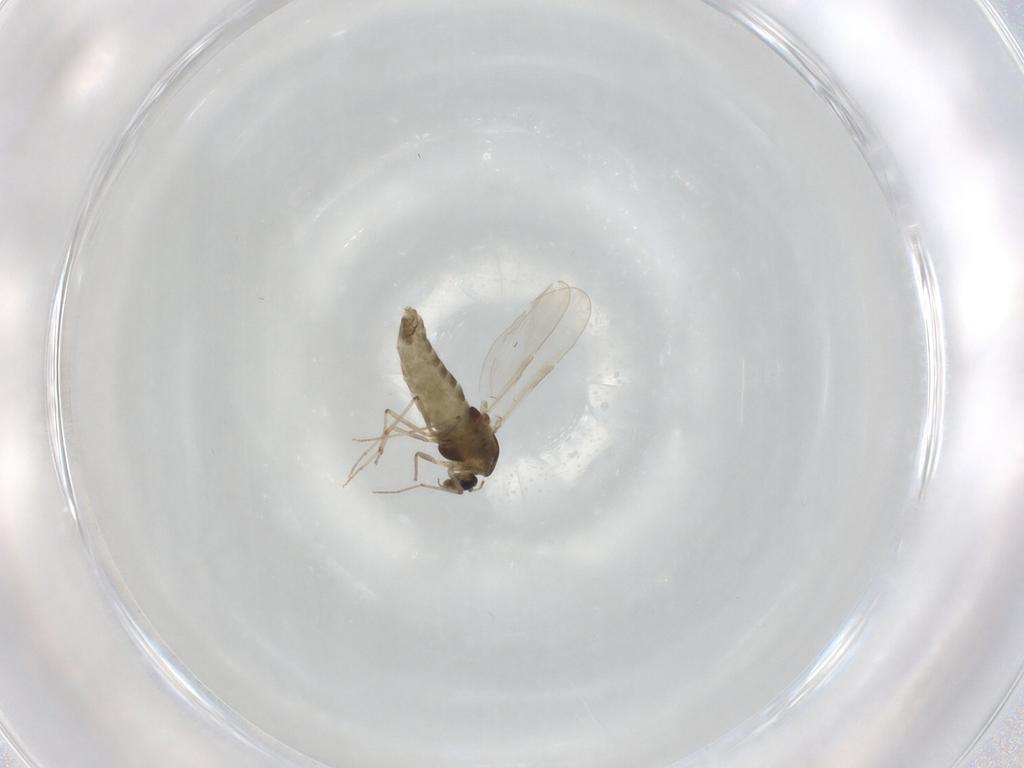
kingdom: Animalia
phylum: Arthropoda
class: Insecta
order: Diptera
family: Chironomidae
